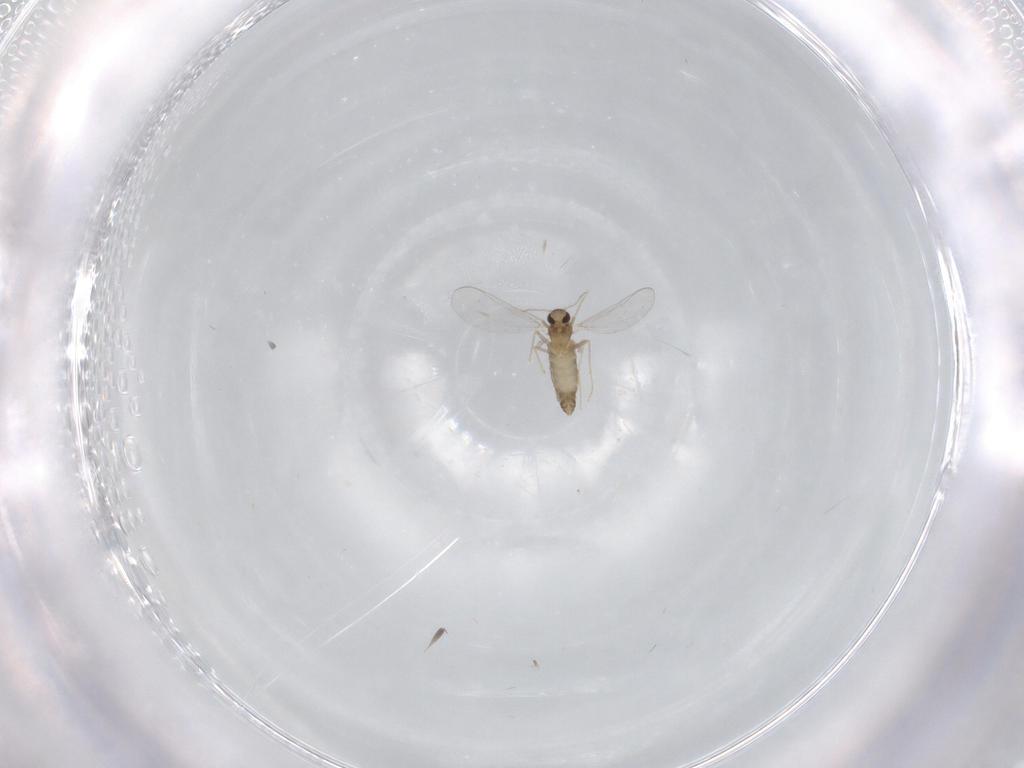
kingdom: Animalia
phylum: Arthropoda
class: Insecta
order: Diptera
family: Chironomidae
